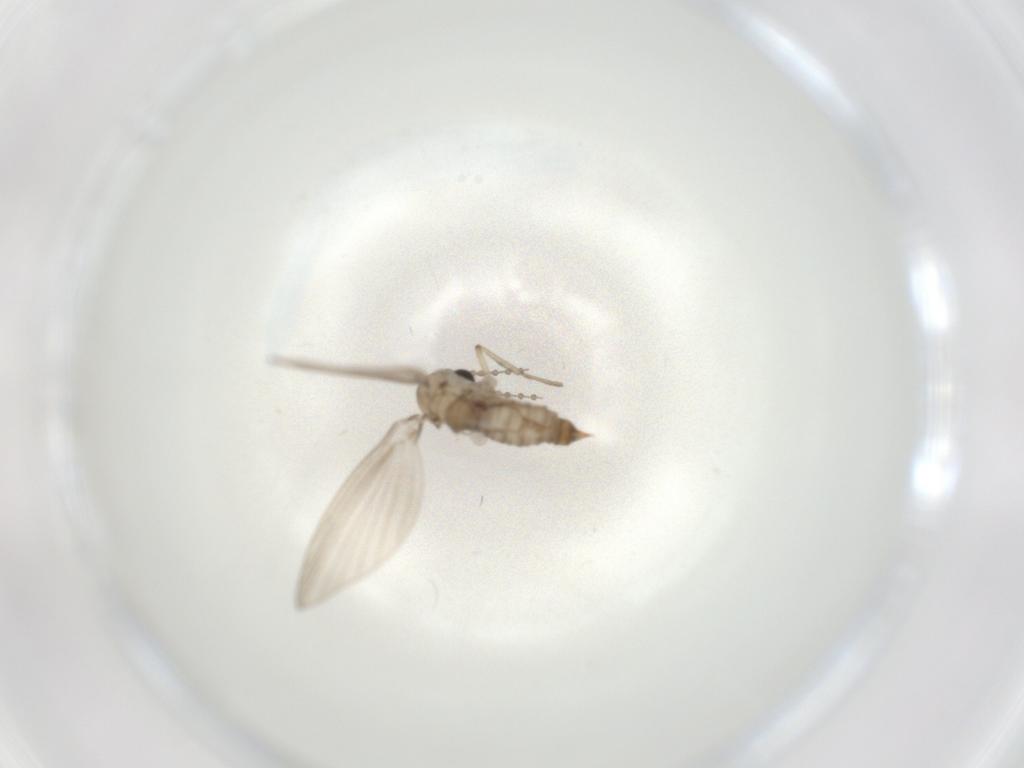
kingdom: Animalia
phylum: Arthropoda
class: Insecta
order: Diptera
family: Psychodidae
